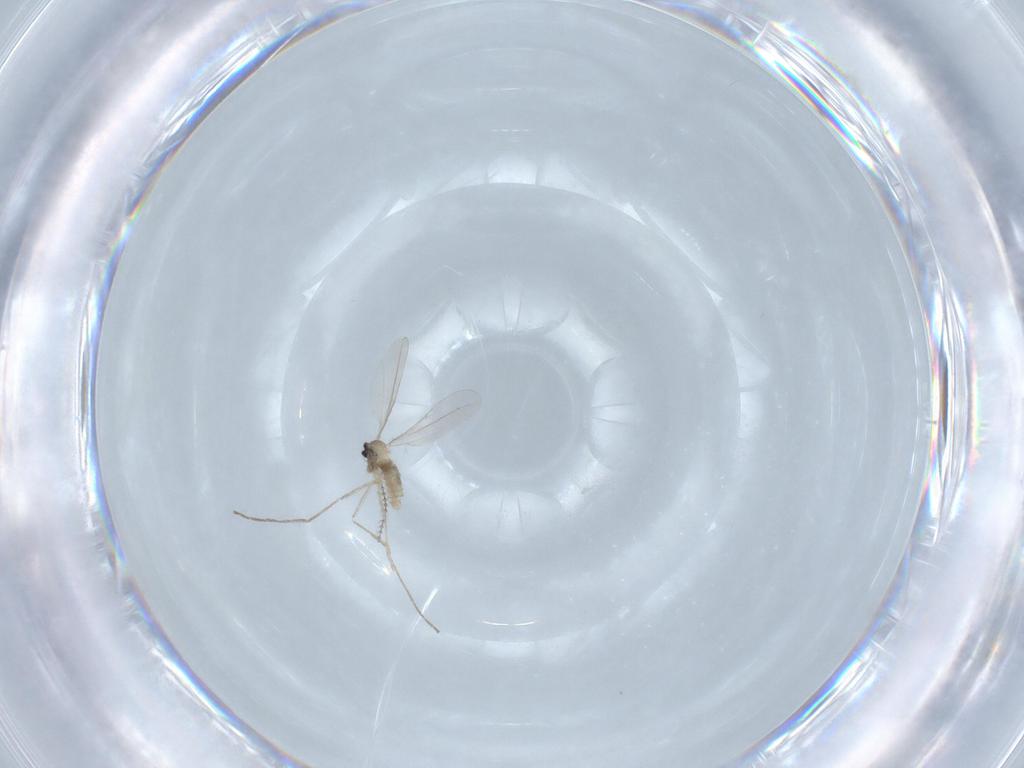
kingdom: Animalia
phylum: Arthropoda
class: Insecta
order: Diptera
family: Cecidomyiidae
